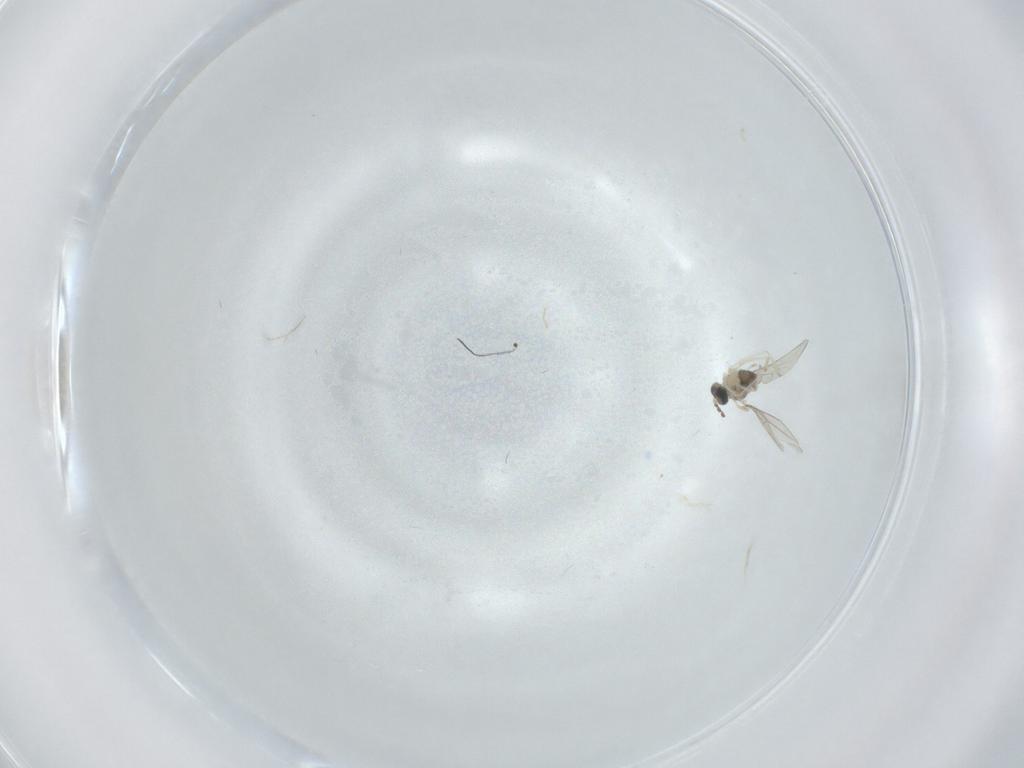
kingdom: Animalia
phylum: Arthropoda
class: Insecta
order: Diptera
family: Cecidomyiidae
